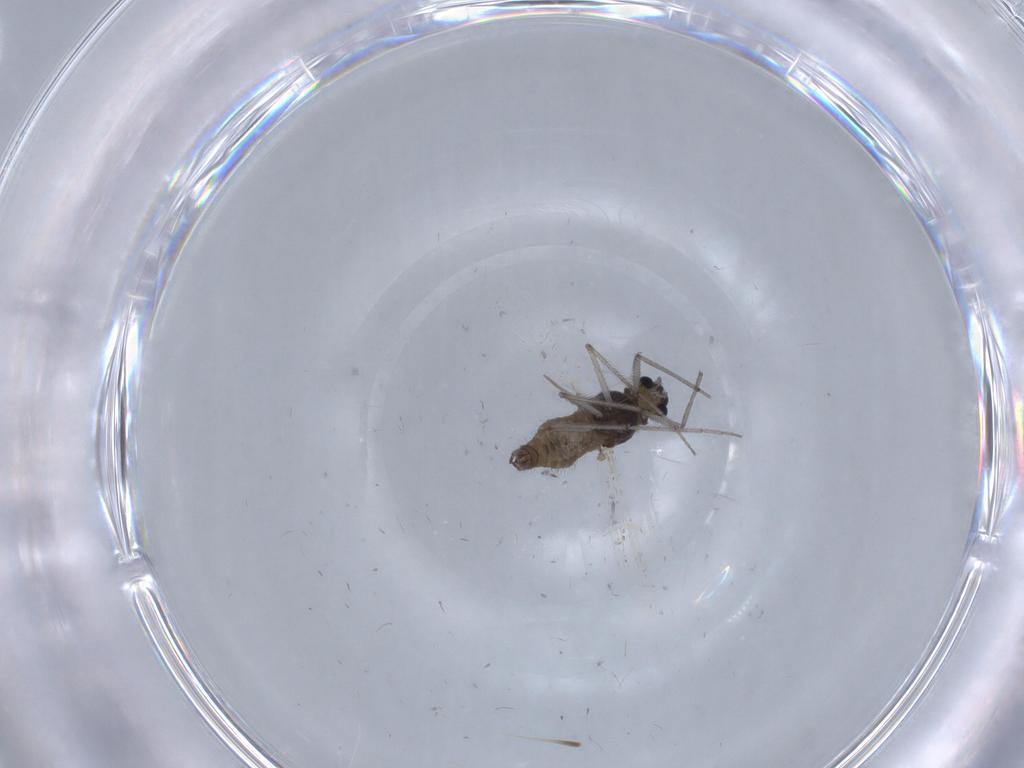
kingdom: Animalia
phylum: Arthropoda
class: Insecta
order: Diptera
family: Cecidomyiidae
